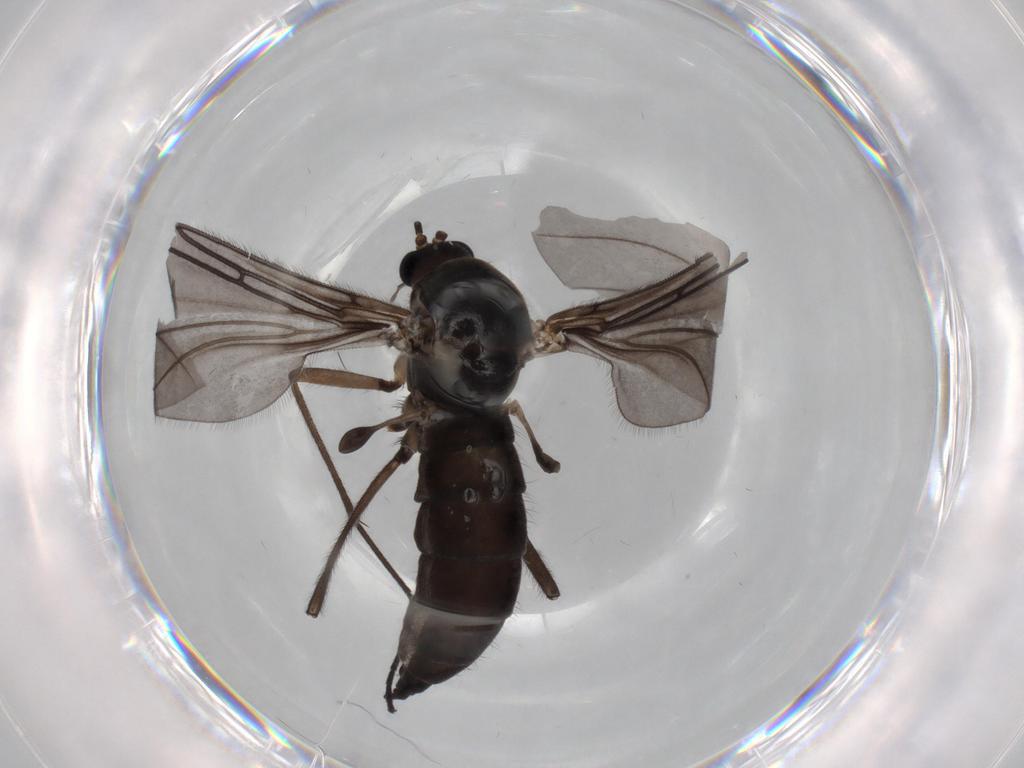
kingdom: Animalia
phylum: Arthropoda
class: Insecta
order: Diptera
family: Sciaridae
